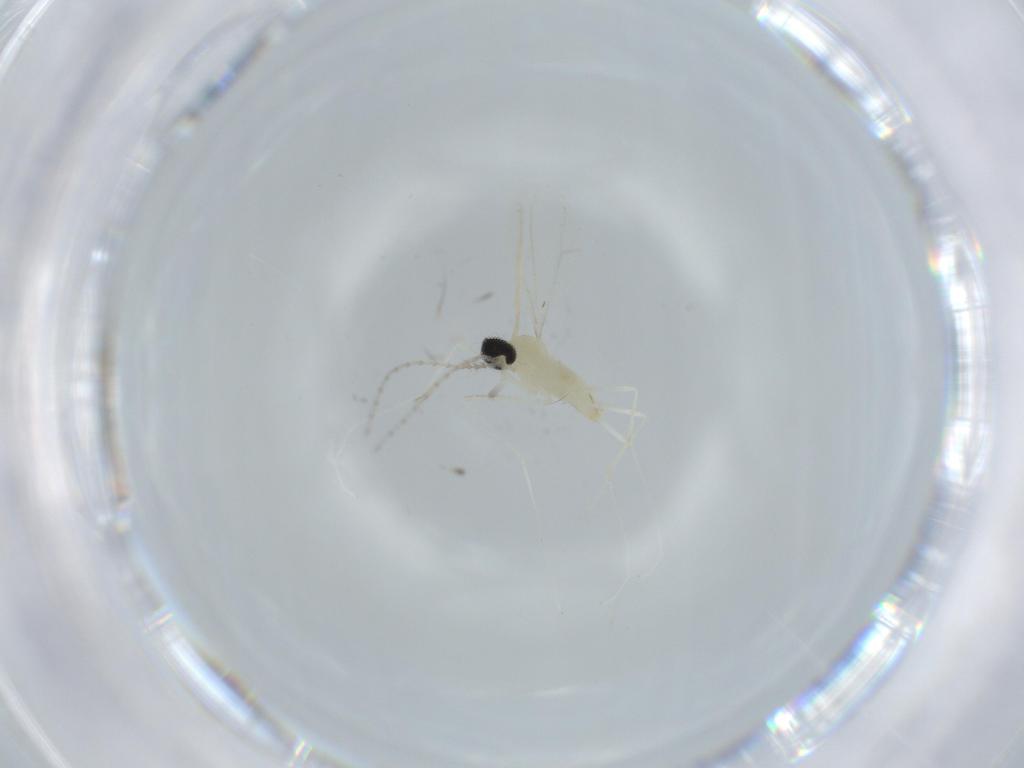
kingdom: Animalia
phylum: Arthropoda
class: Insecta
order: Diptera
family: Cecidomyiidae
